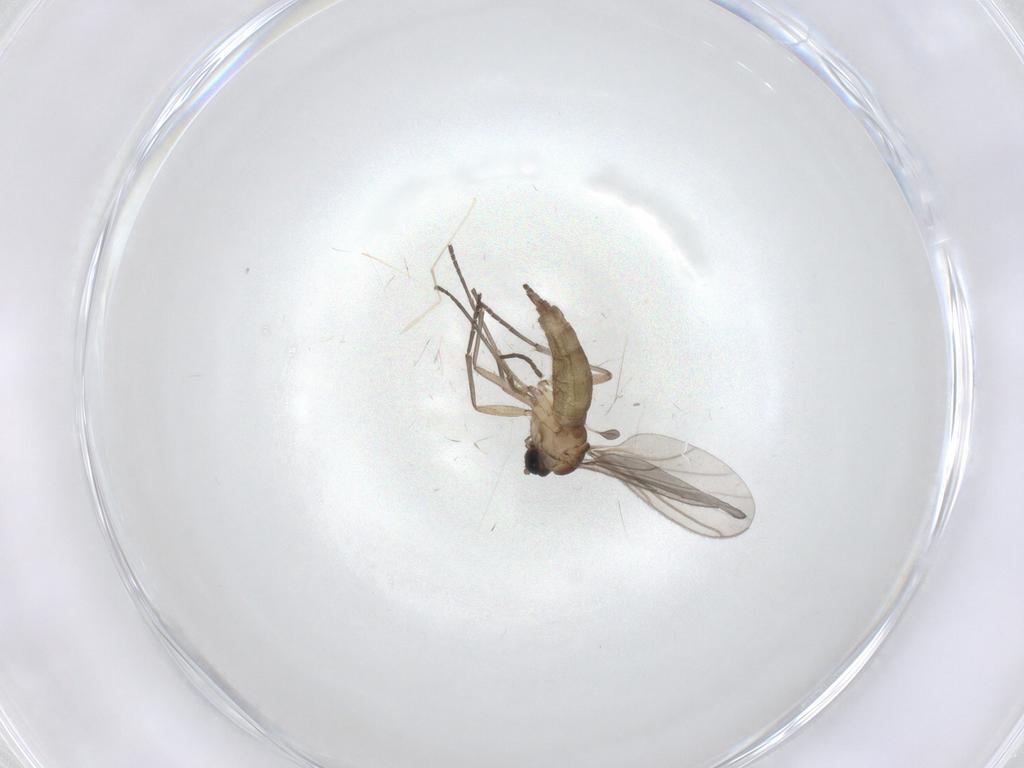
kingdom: Animalia
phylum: Arthropoda
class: Insecta
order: Diptera
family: Sciaridae
